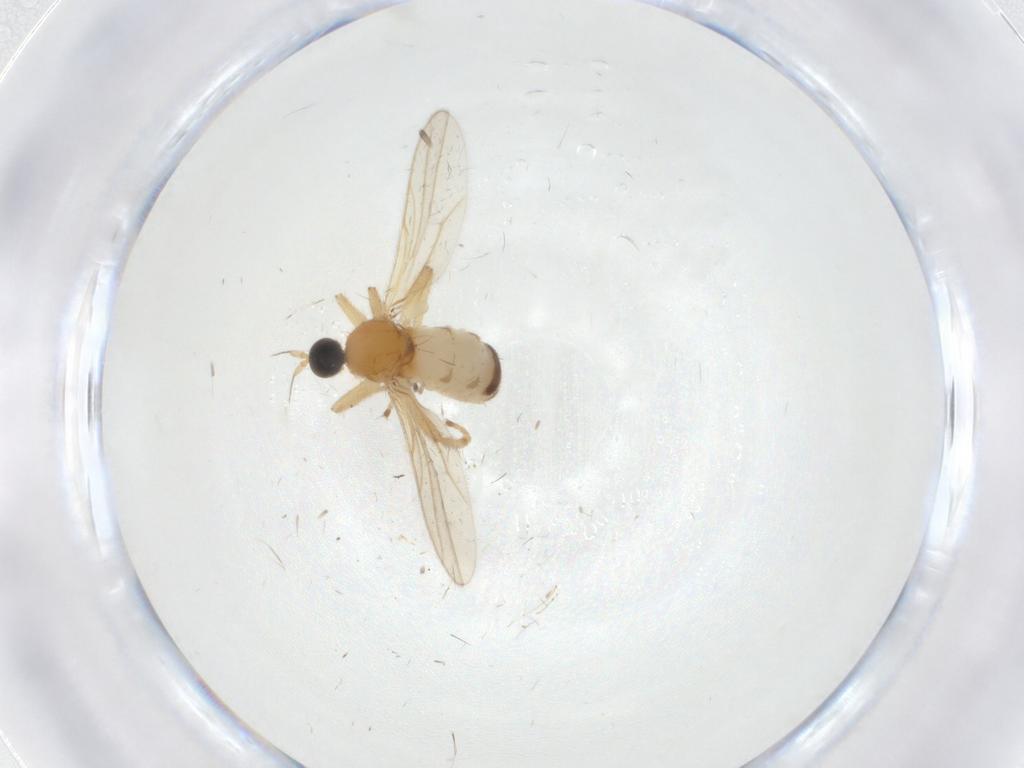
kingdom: Animalia
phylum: Arthropoda
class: Insecta
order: Diptera
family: Hybotidae
